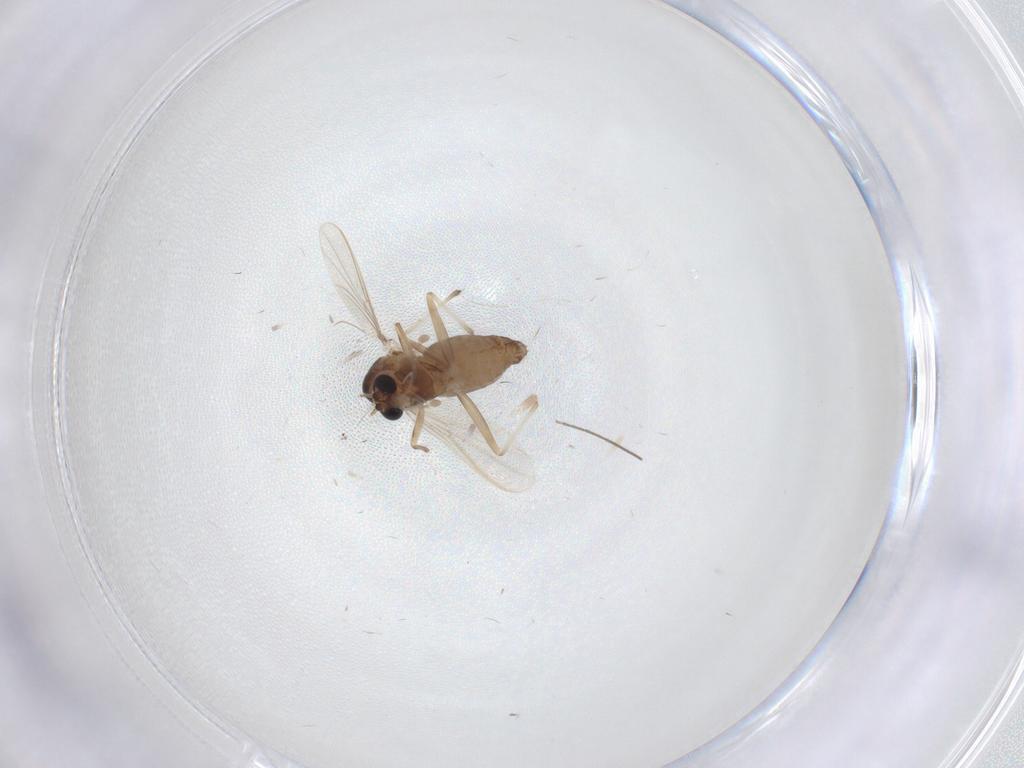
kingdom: Animalia
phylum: Arthropoda
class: Insecta
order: Diptera
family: Chironomidae
